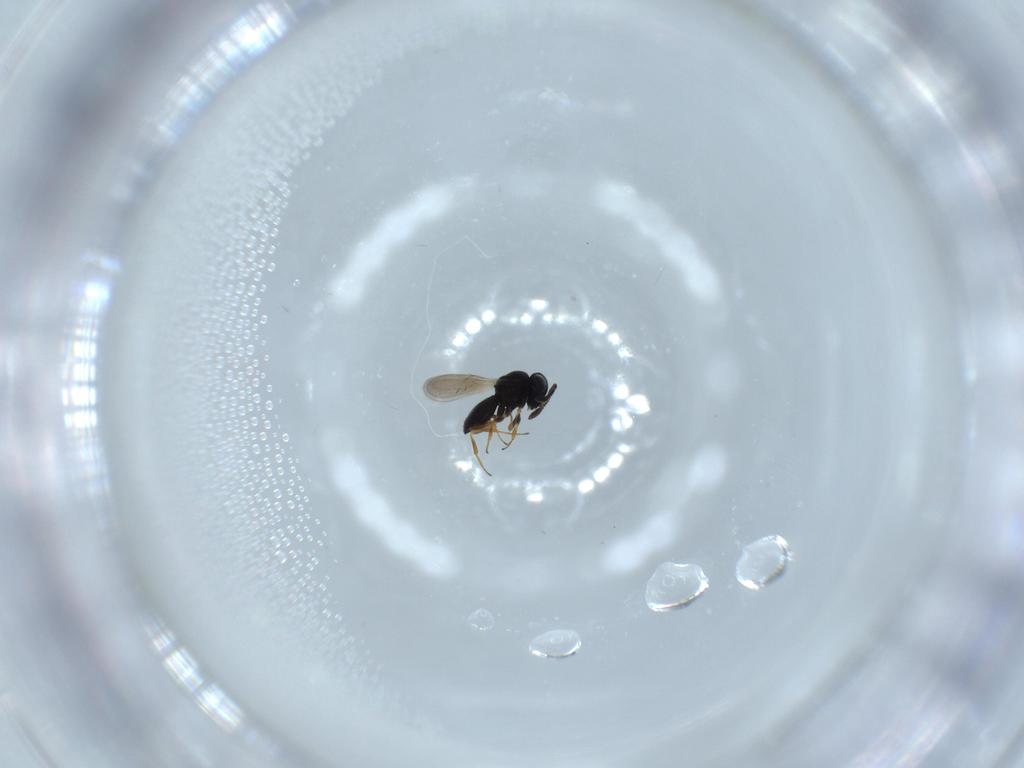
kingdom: Animalia
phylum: Arthropoda
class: Insecta
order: Hymenoptera
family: Scelionidae
